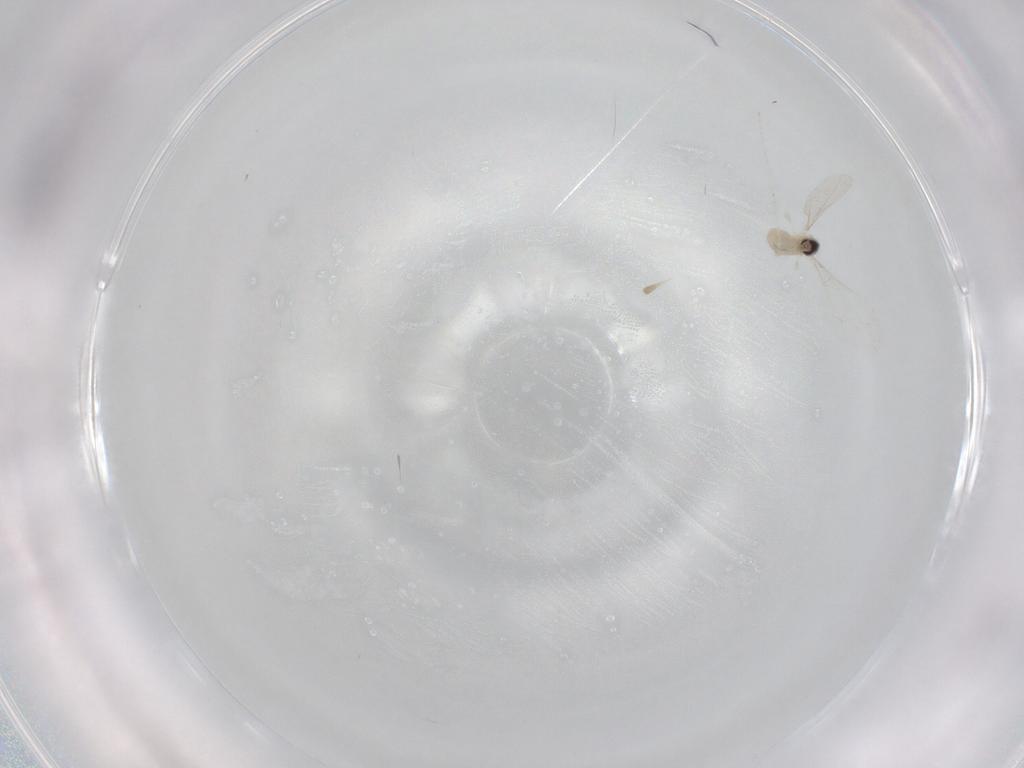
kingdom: Animalia
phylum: Arthropoda
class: Insecta
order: Diptera
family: Cecidomyiidae
